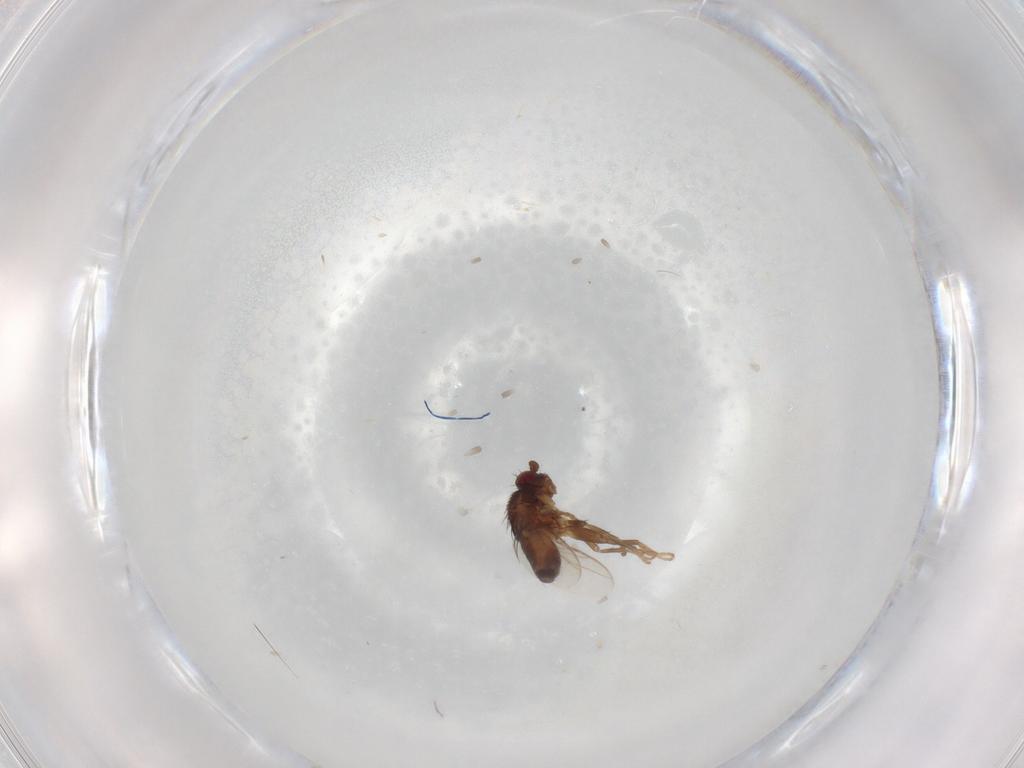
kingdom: Animalia
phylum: Arthropoda
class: Insecta
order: Diptera
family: Ceratopogonidae
